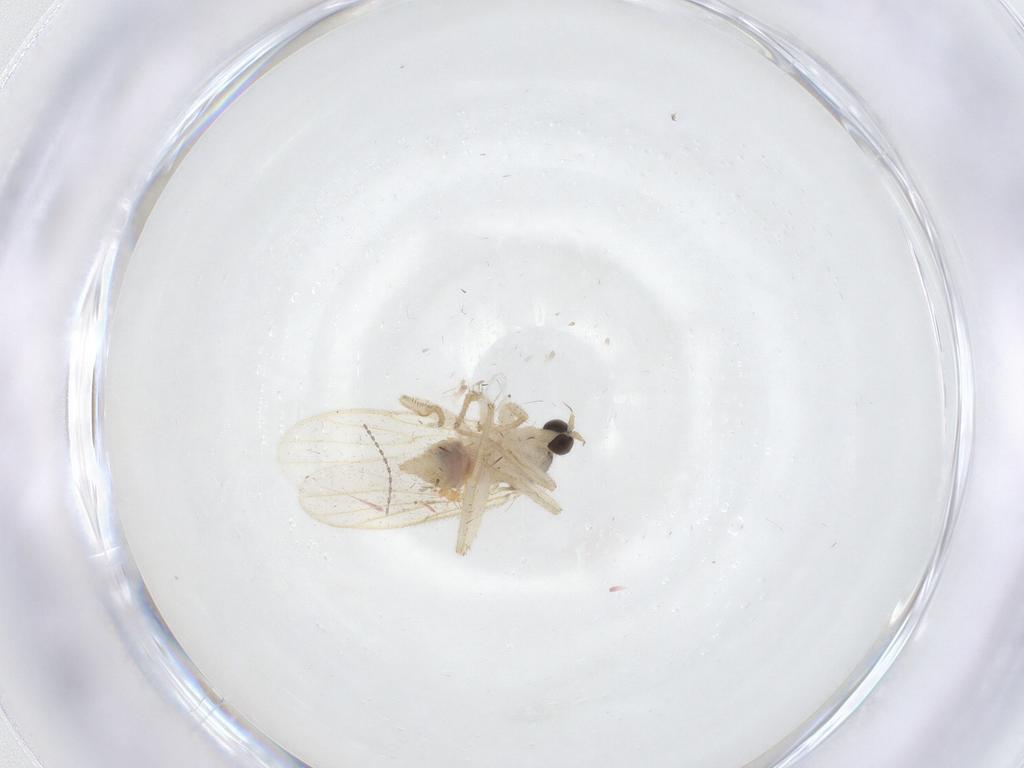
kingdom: Animalia
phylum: Arthropoda
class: Insecta
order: Diptera
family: Hybotidae
